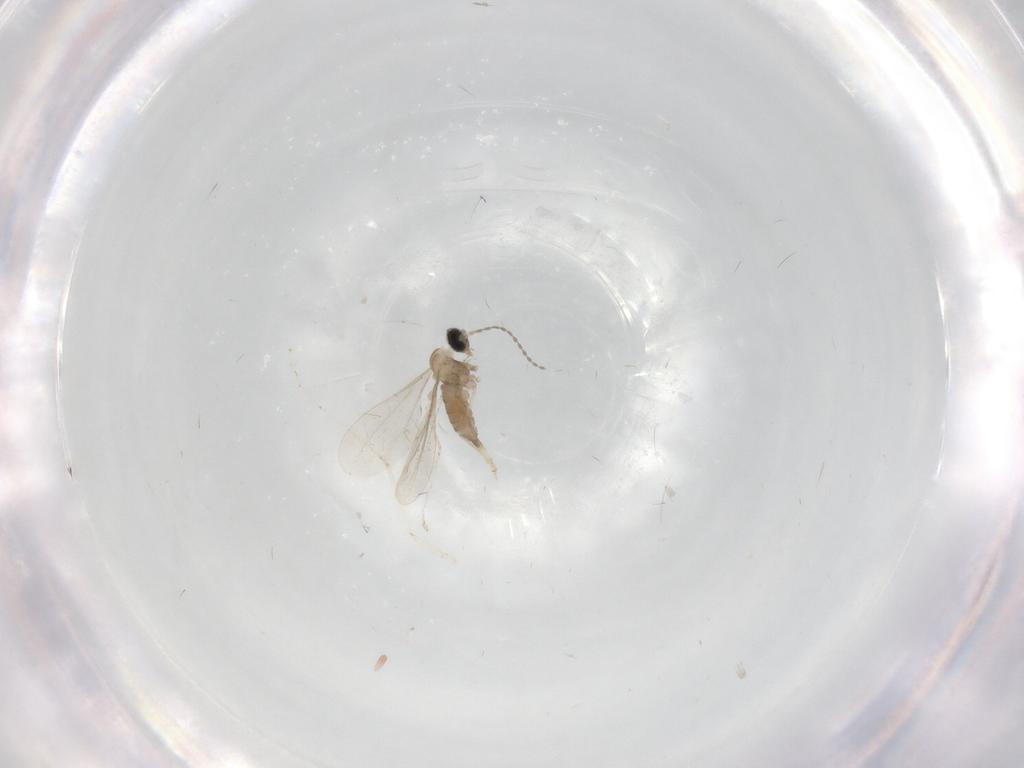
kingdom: Animalia
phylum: Arthropoda
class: Insecta
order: Diptera
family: Cecidomyiidae
